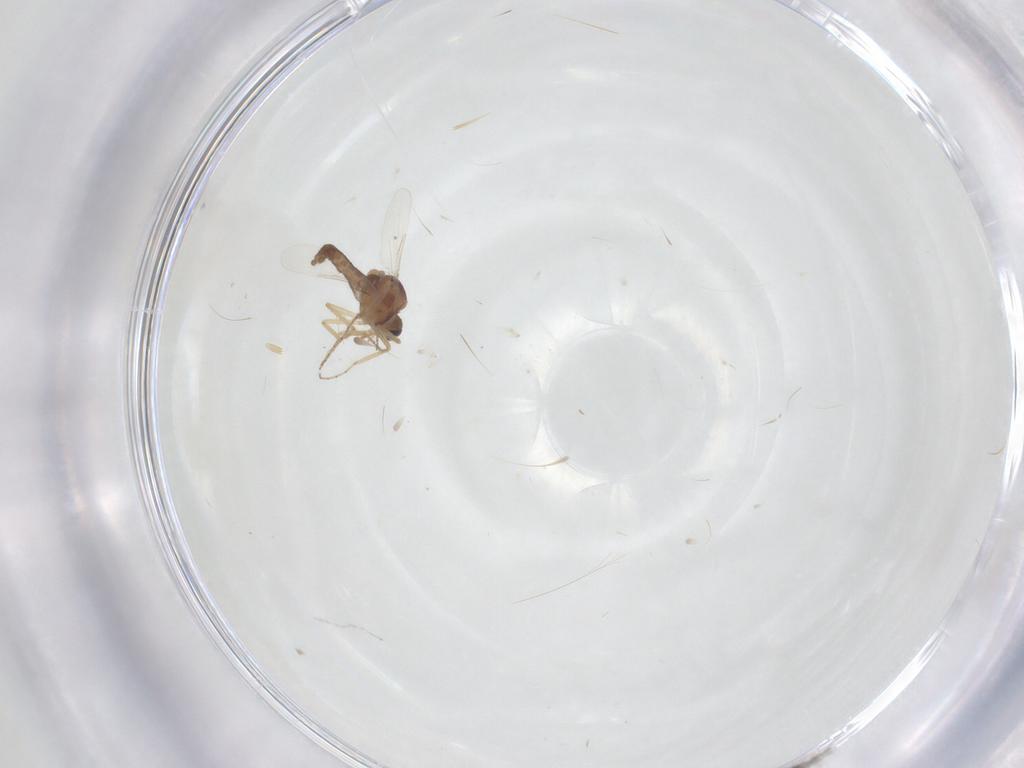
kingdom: Animalia
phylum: Arthropoda
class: Insecta
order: Diptera
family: Ceratopogonidae
